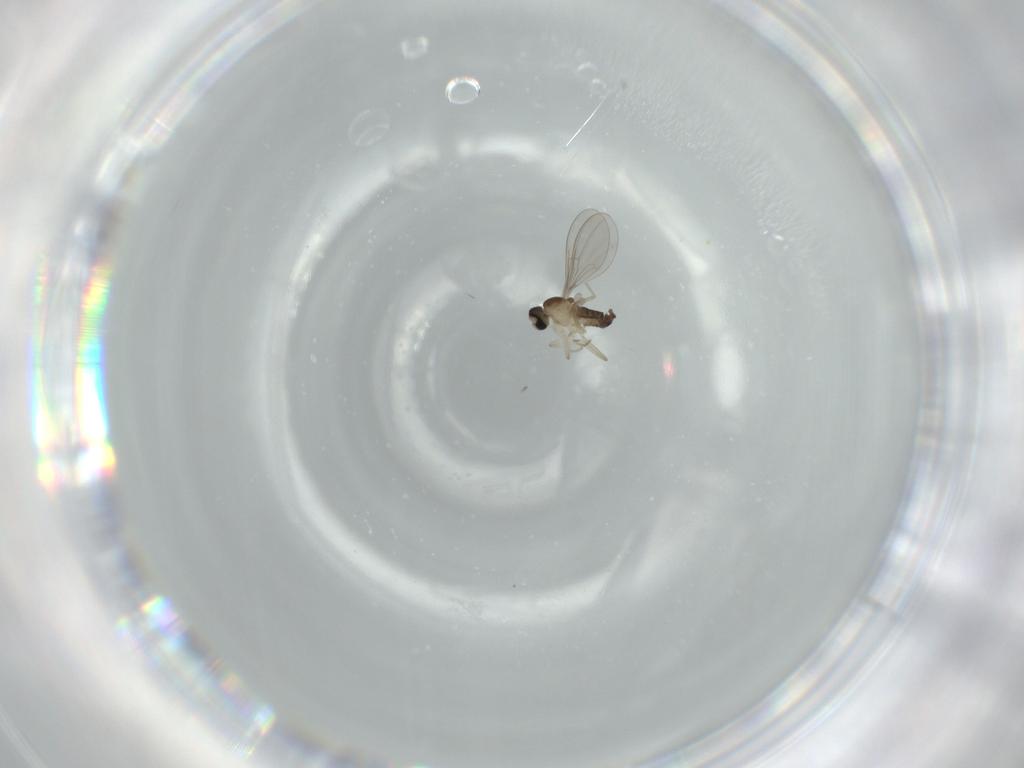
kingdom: Animalia
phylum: Arthropoda
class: Insecta
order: Diptera
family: Cecidomyiidae
